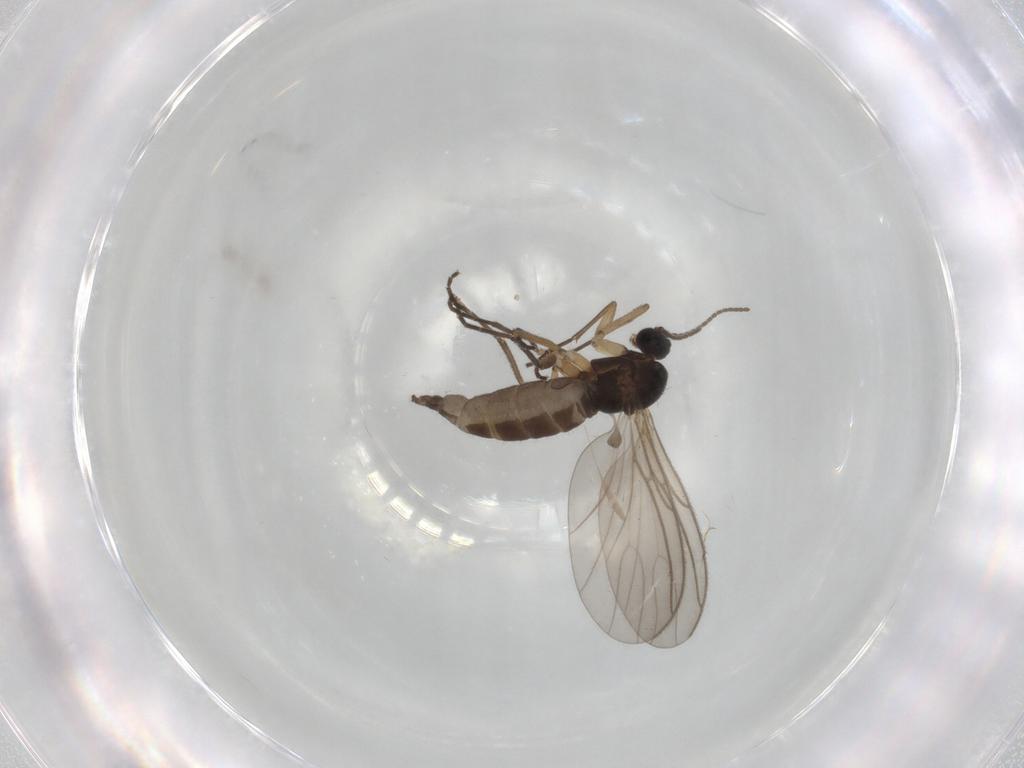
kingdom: Animalia
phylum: Arthropoda
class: Insecta
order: Diptera
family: Sciaridae
